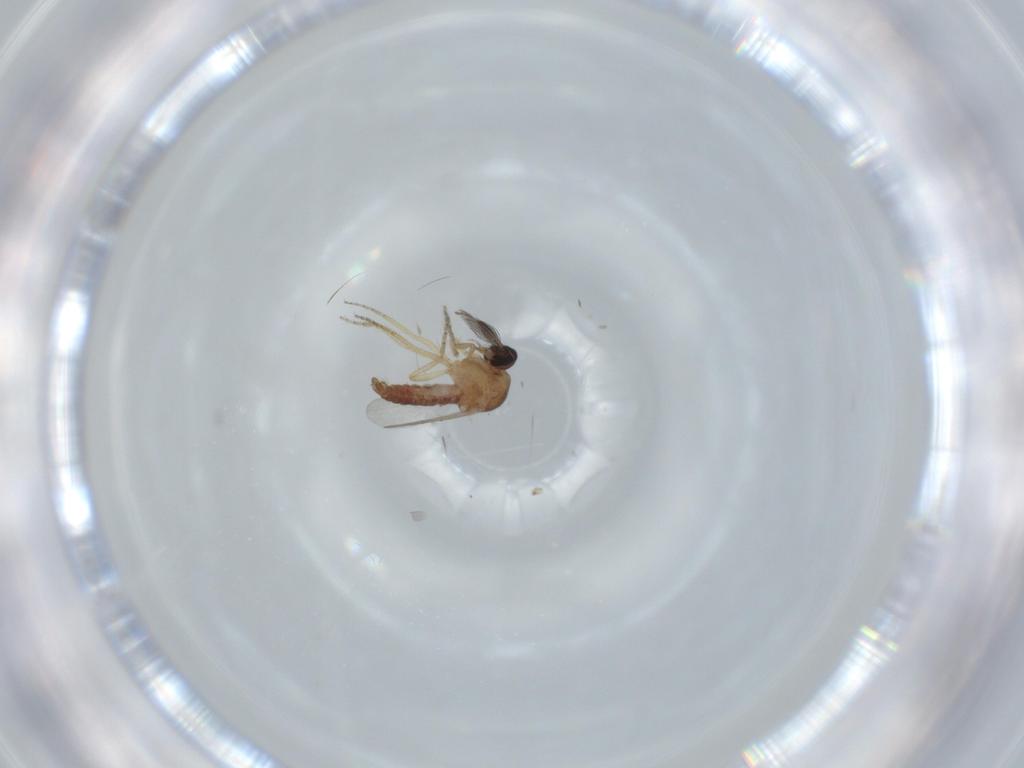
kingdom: Animalia
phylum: Arthropoda
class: Insecta
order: Diptera
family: Ceratopogonidae
